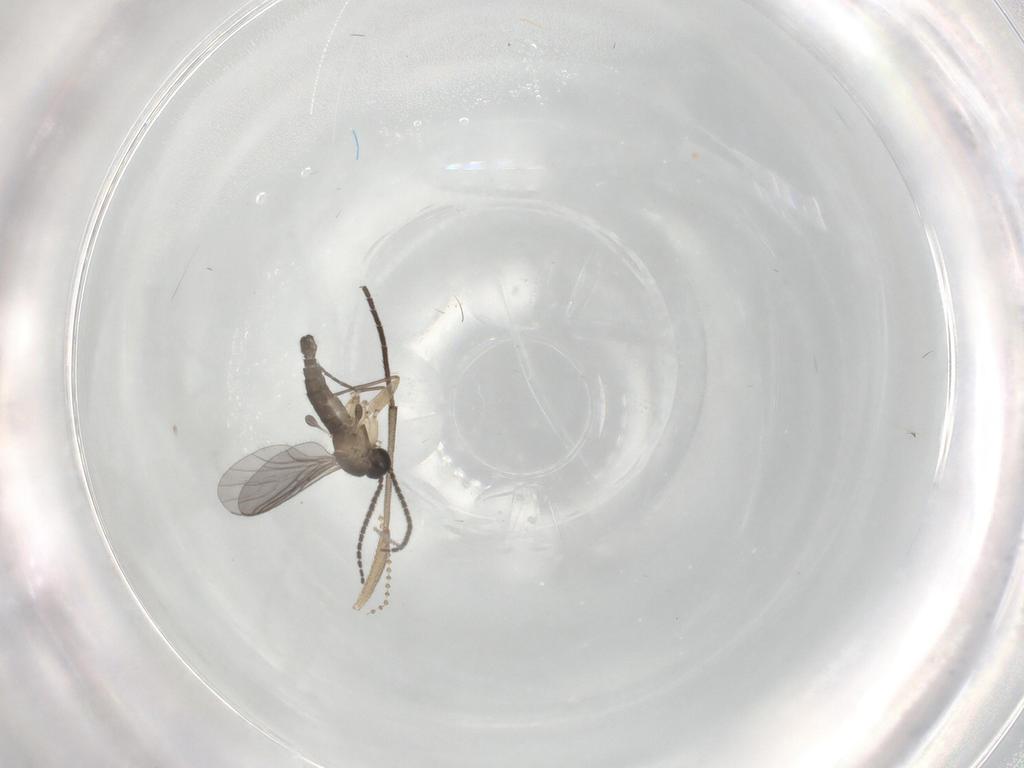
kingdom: Animalia
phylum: Arthropoda
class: Insecta
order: Diptera
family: Sciaridae
